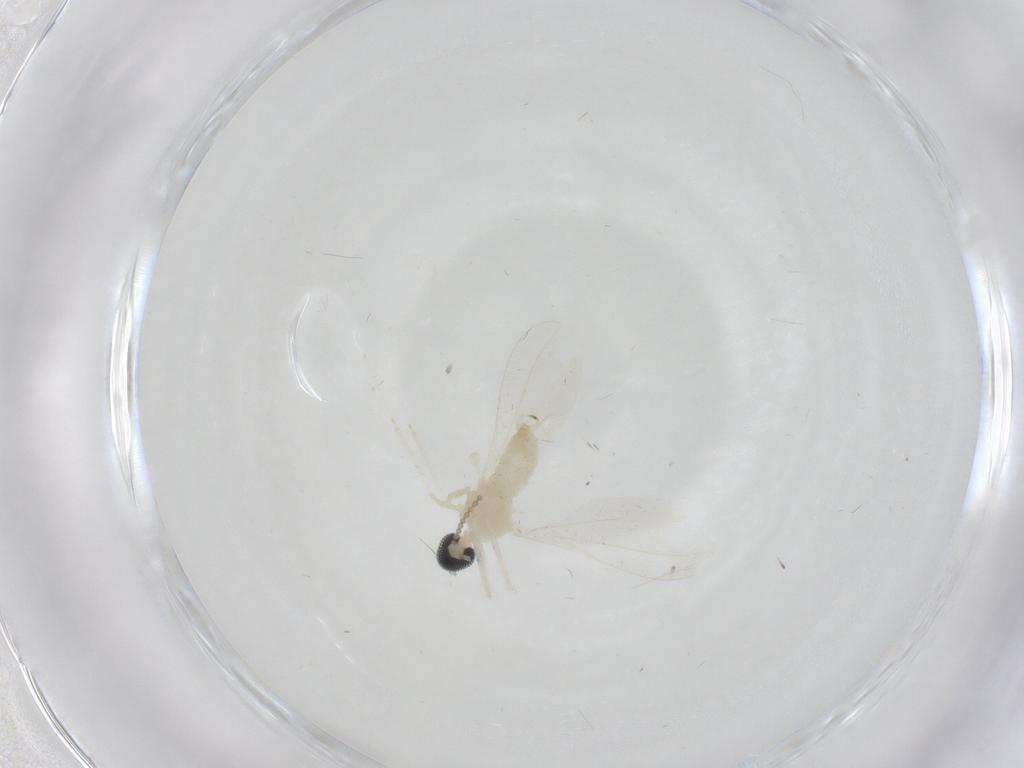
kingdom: Animalia
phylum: Arthropoda
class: Insecta
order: Diptera
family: Cecidomyiidae
